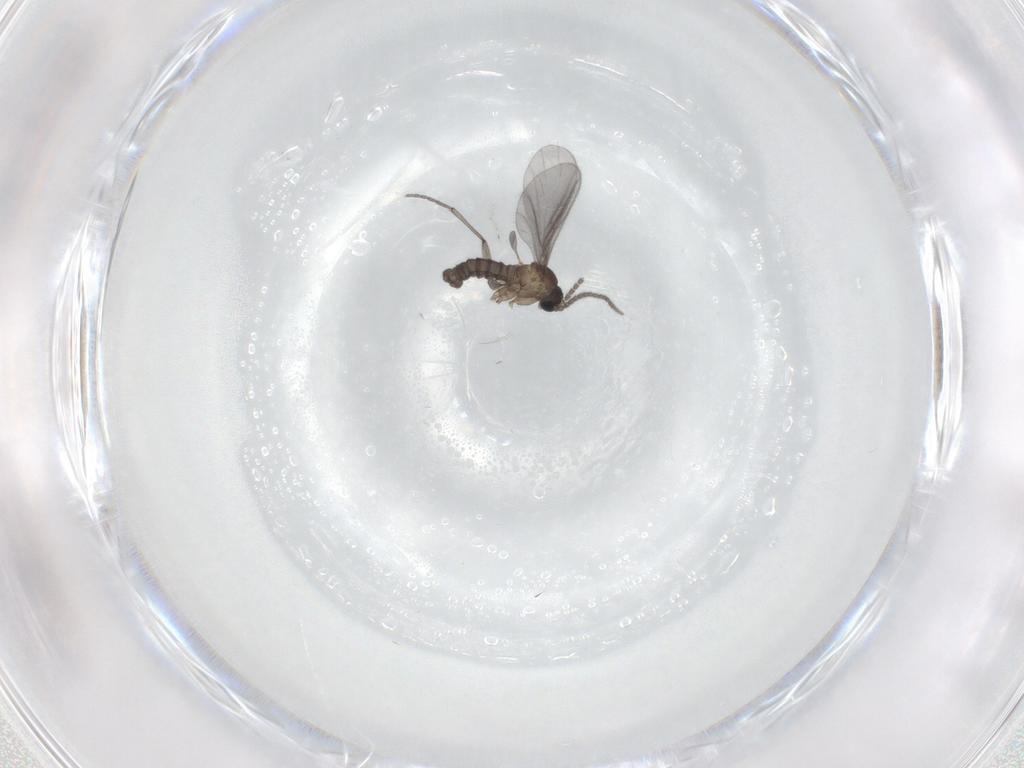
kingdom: Animalia
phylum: Arthropoda
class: Insecta
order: Diptera
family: Sciaridae
